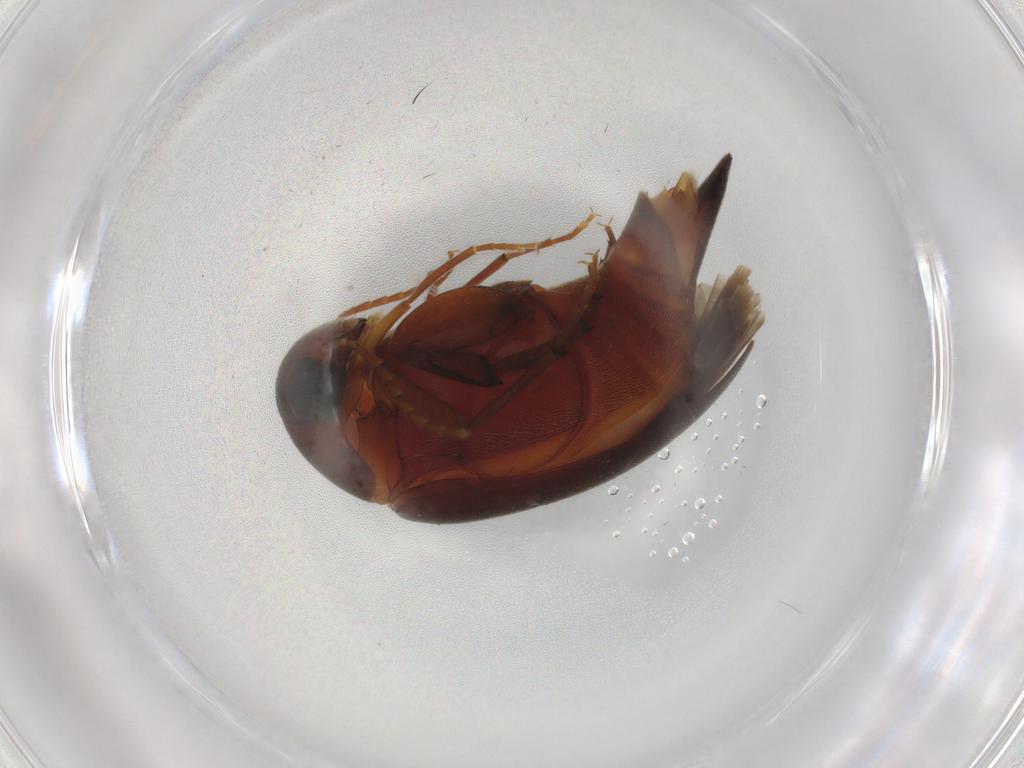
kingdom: Animalia
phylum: Arthropoda
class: Insecta
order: Coleoptera
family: Mordellidae
